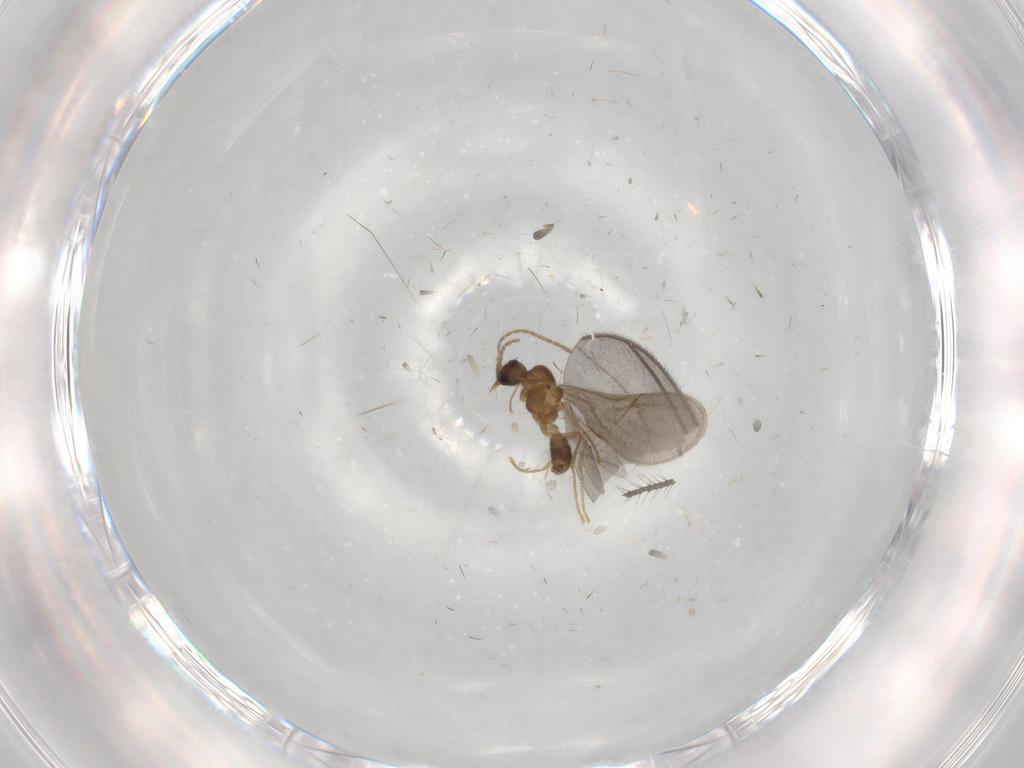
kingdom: Animalia
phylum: Arthropoda
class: Insecta
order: Hymenoptera
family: Formicidae
